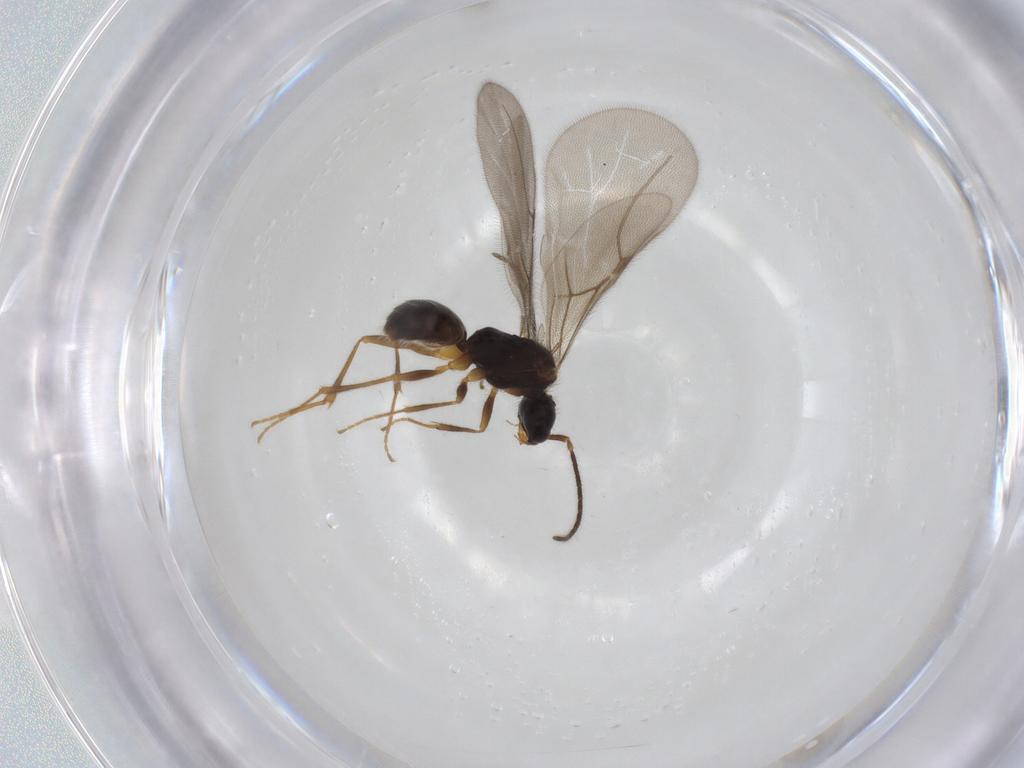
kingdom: Animalia
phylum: Arthropoda
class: Insecta
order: Hymenoptera
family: Bethylidae
